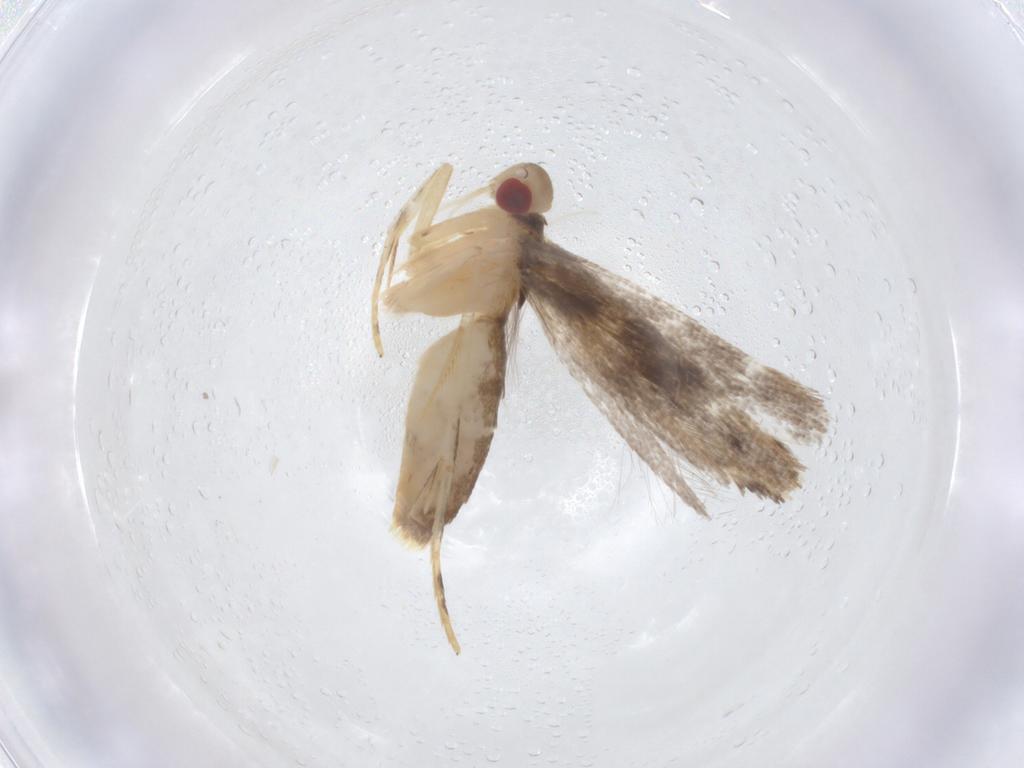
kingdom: Animalia
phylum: Arthropoda
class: Insecta
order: Lepidoptera
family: Cosmopterigidae
